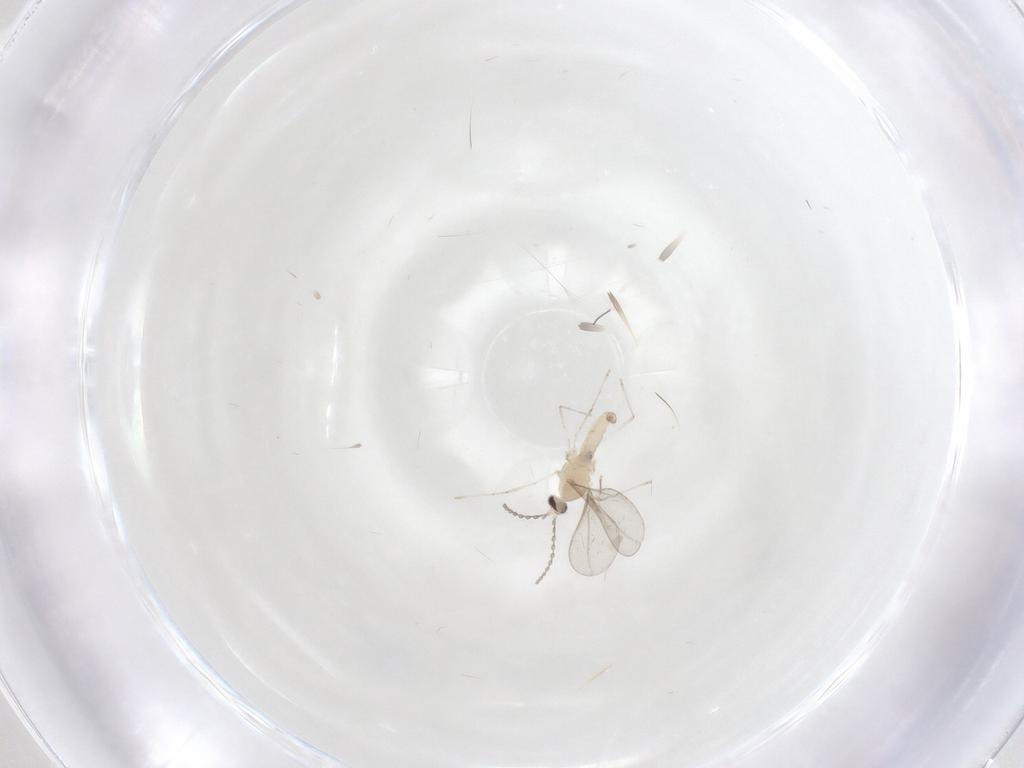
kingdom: Animalia
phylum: Arthropoda
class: Insecta
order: Diptera
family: Cecidomyiidae
